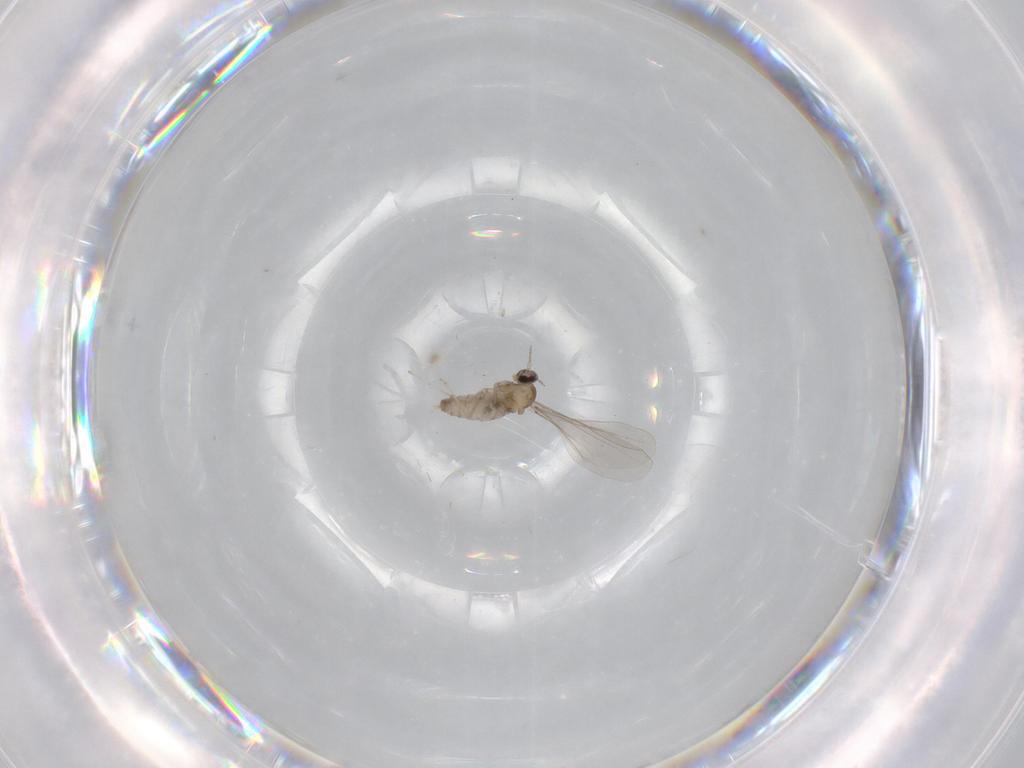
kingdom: Animalia
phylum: Arthropoda
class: Insecta
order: Diptera
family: Cecidomyiidae
